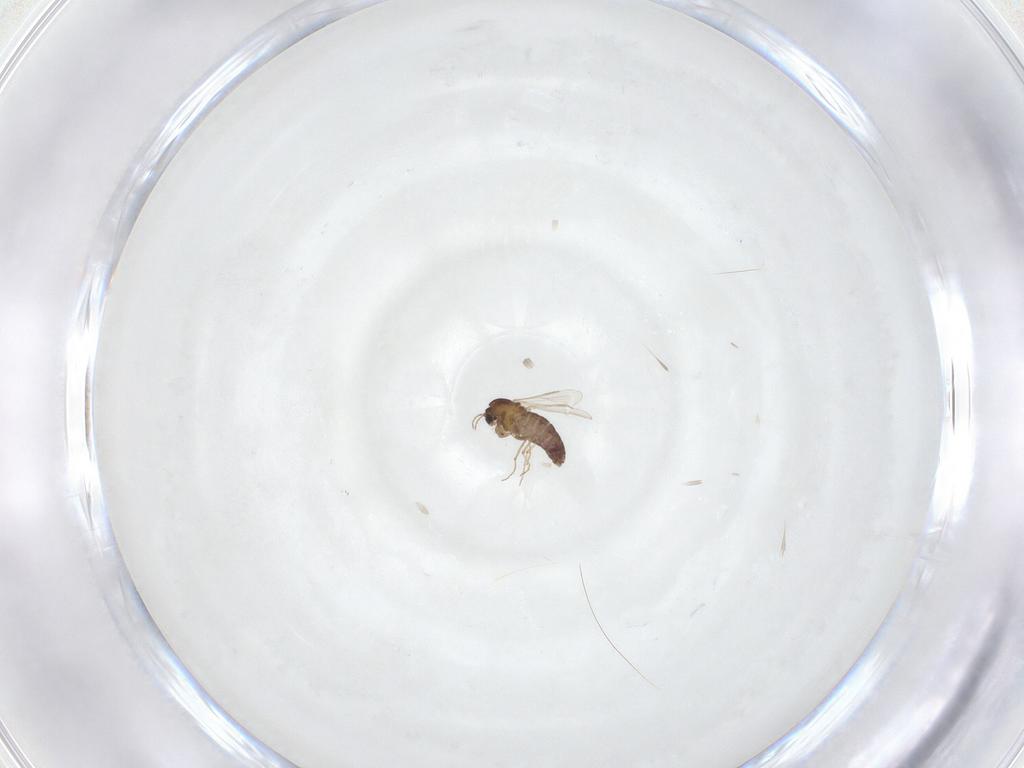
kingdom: Animalia
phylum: Arthropoda
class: Insecta
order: Diptera
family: Chironomidae
